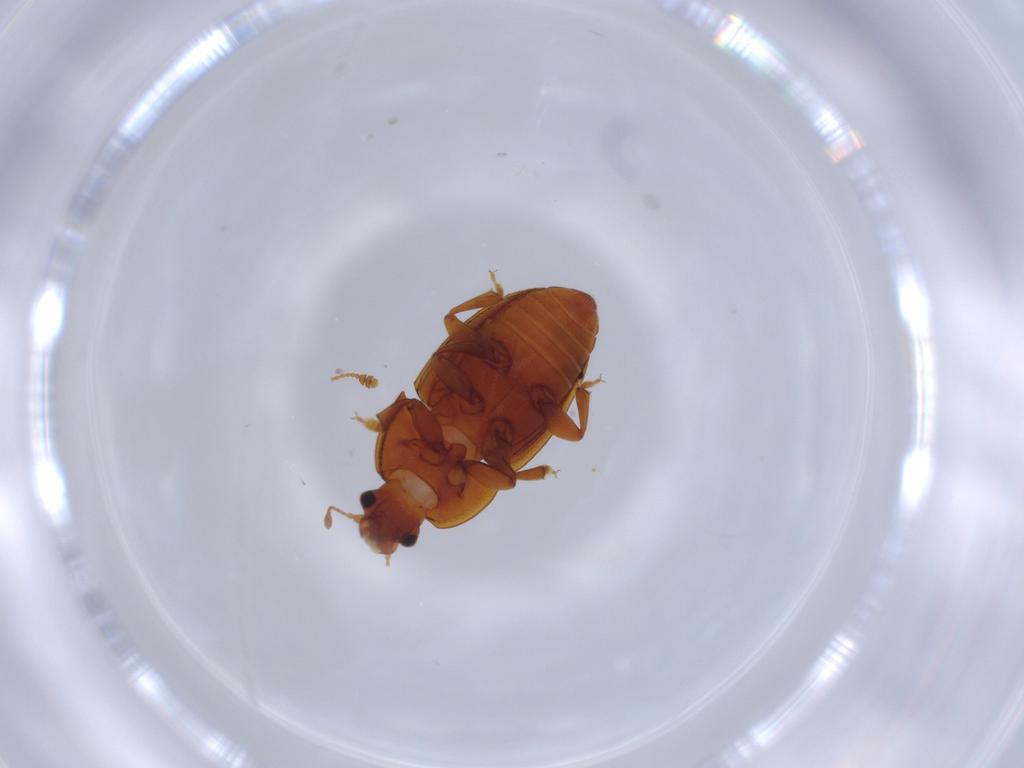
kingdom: Animalia
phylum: Arthropoda
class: Insecta
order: Coleoptera
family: Nitidulidae
